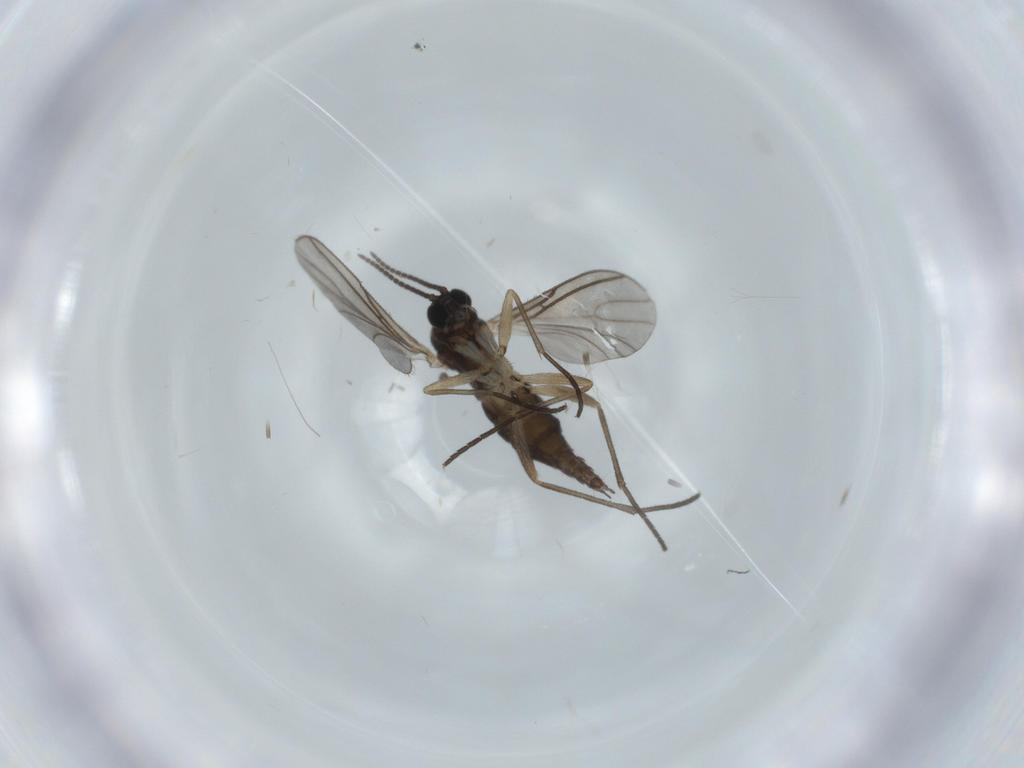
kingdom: Animalia
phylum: Arthropoda
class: Insecta
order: Diptera
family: Sciaridae
